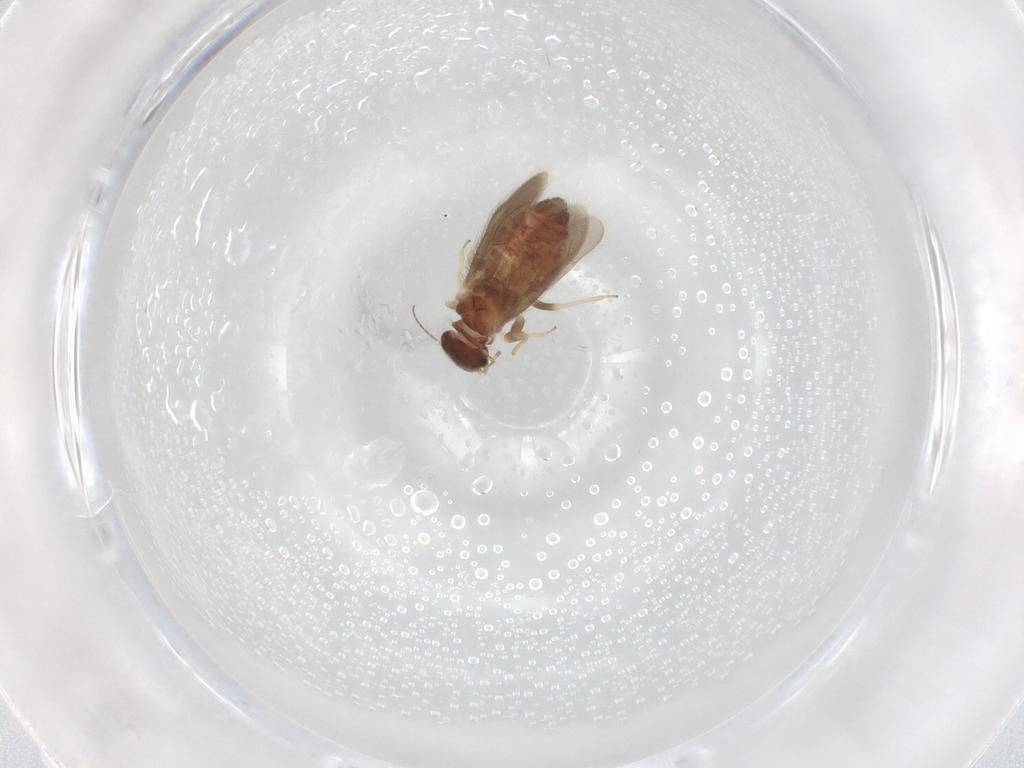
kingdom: Animalia
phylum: Arthropoda
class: Insecta
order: Psocodea
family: Archipsocidae
